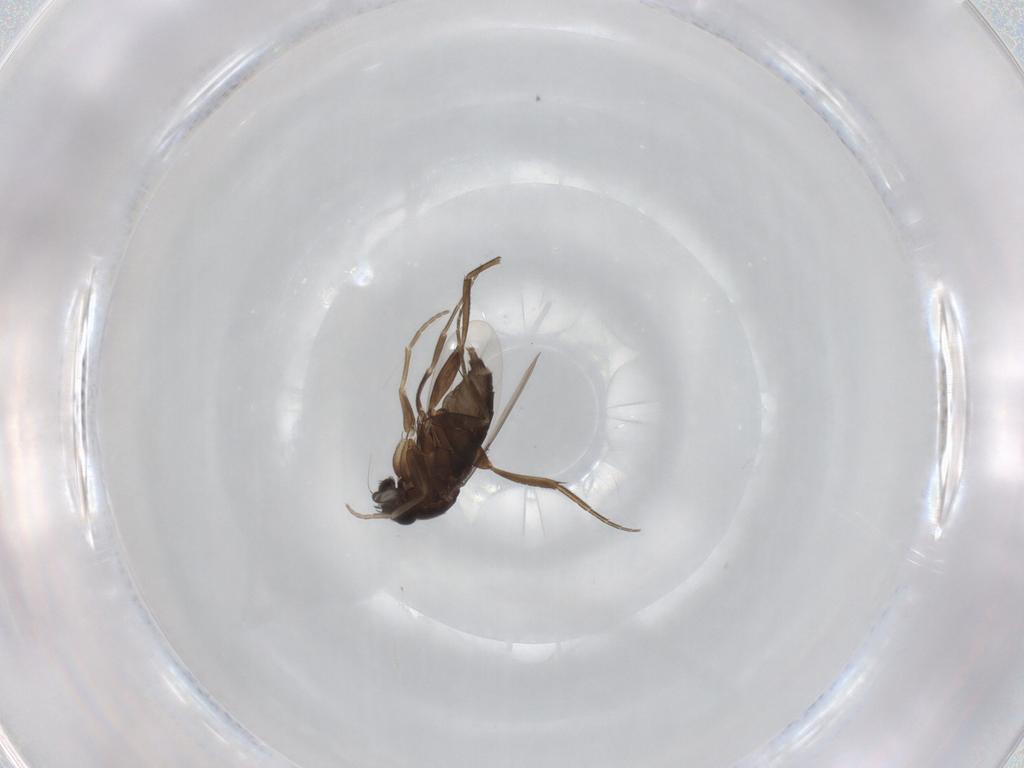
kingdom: Animalia
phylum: Arthropoda
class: Insecta
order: Diptera
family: Phoridae
